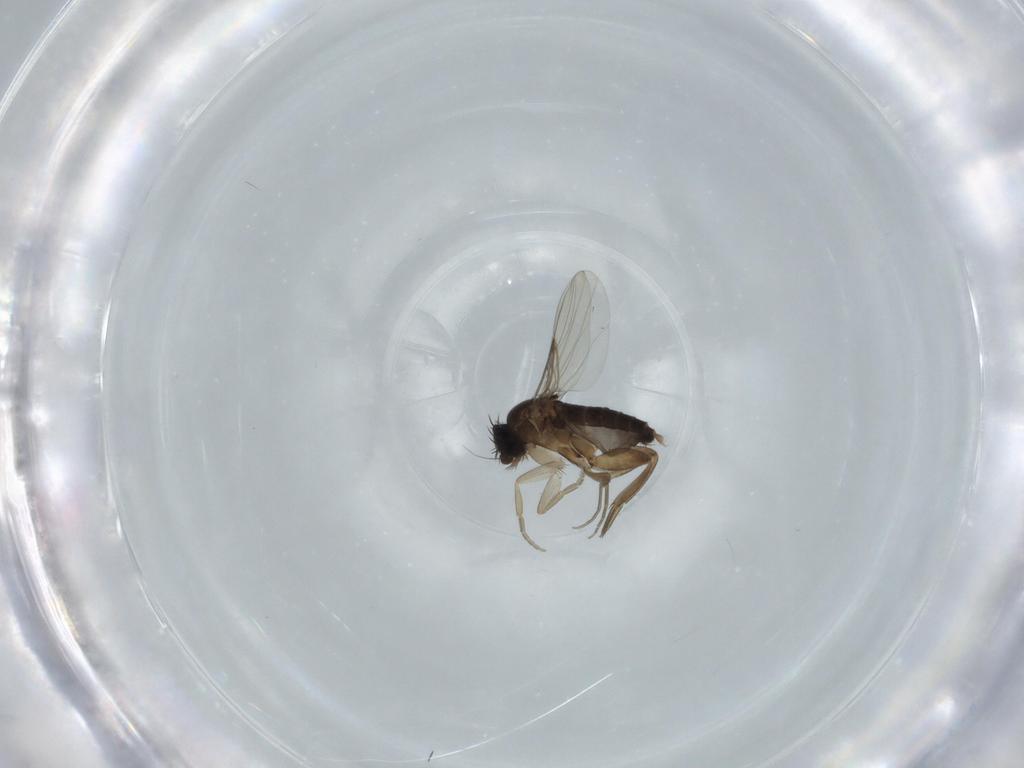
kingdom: Animalia
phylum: Arthropoda
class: Insecta
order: Diptera
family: Phoridae
